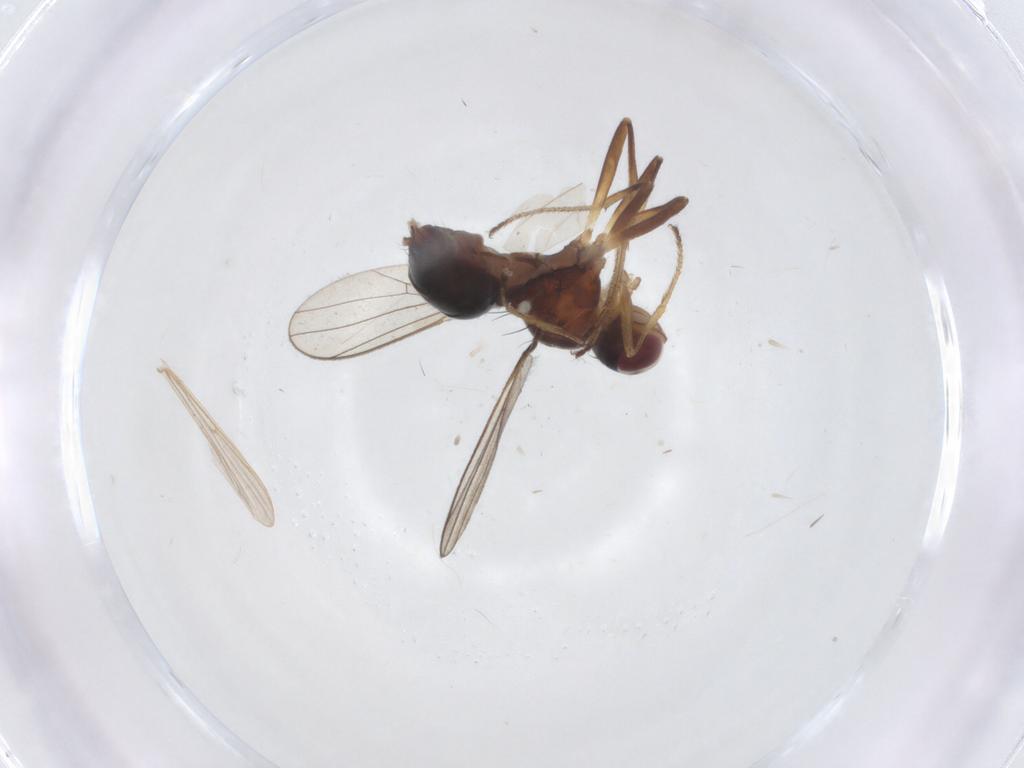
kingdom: Animalia
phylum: Arthropoda
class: Insecta
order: Diptera
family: Sepsidae
